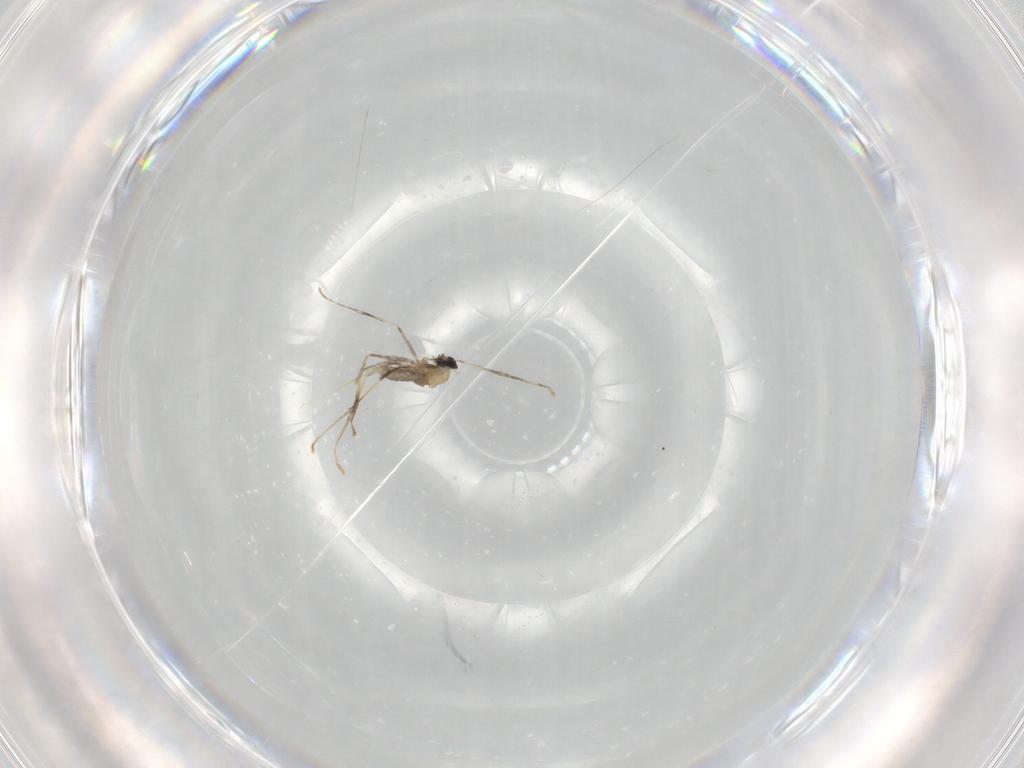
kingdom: Animalia
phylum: Arthropoda
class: Insecta
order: Diptera
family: Cecidomyiidae
